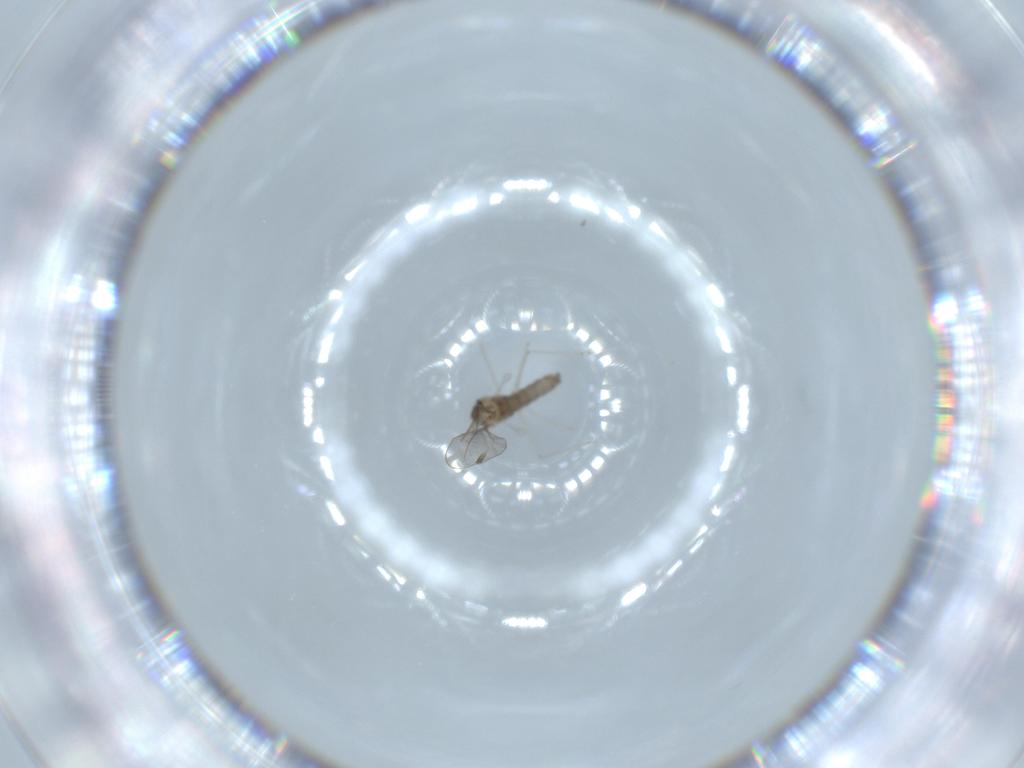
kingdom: Animalia
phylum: Arthropoda
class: Insecta
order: Diptera
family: Cecidomyiidae
